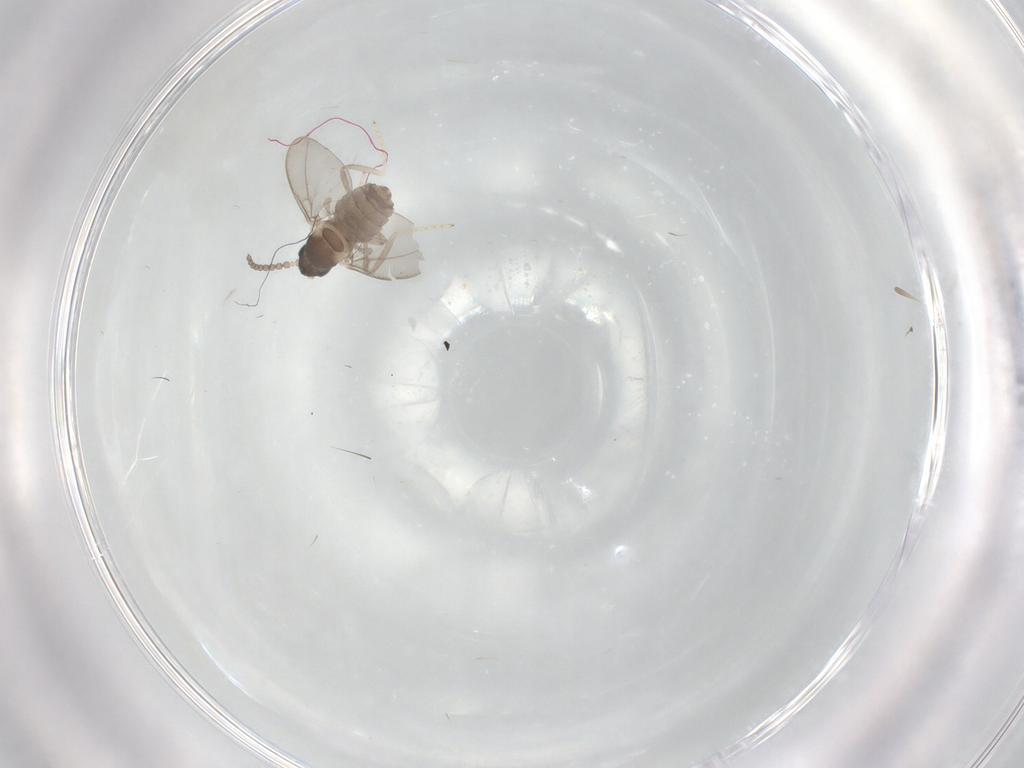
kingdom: Animalia
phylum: Arthropoda
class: Insecta
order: Diptera
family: Cecidomyiidae
